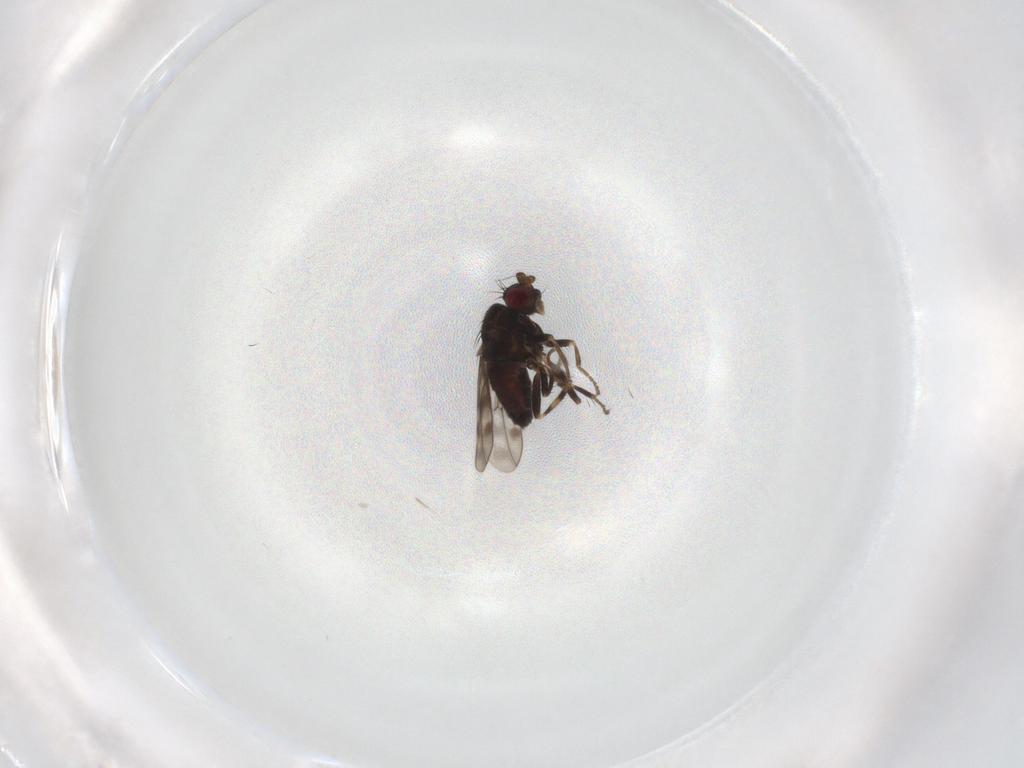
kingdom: Animalia
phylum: Arthropoda
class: Insecta
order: Diptera
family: Sphaeroceridae
